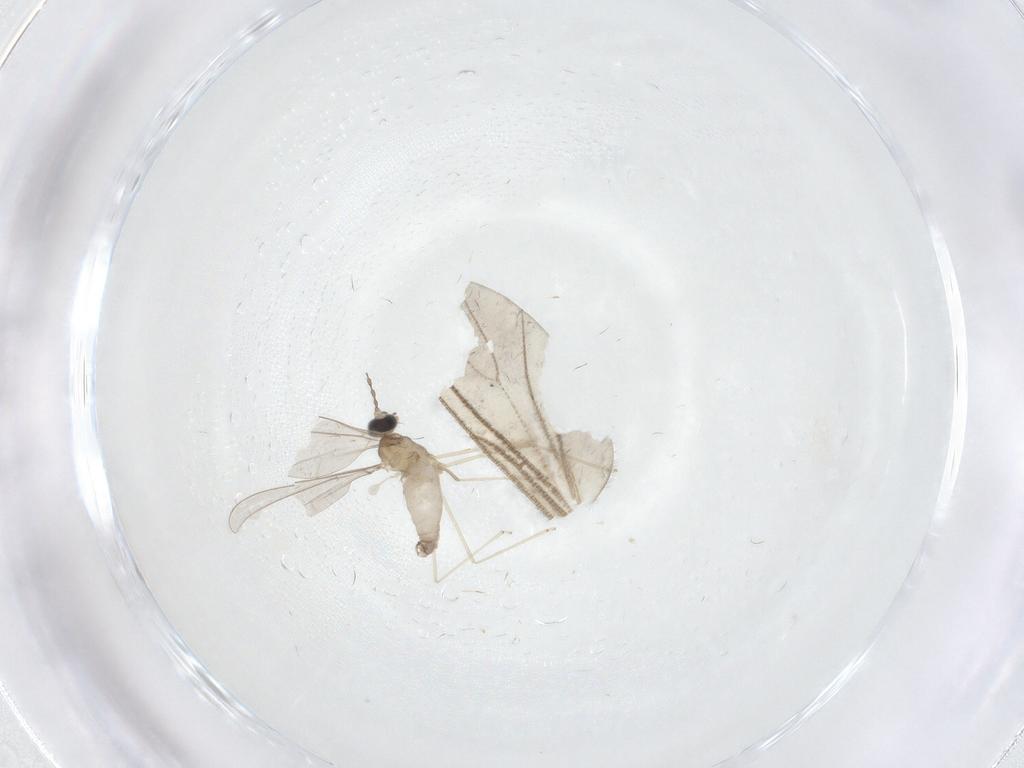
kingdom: Animalia
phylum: Arthropoda
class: Insecta
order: Diptera
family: Cecidomyiidae
